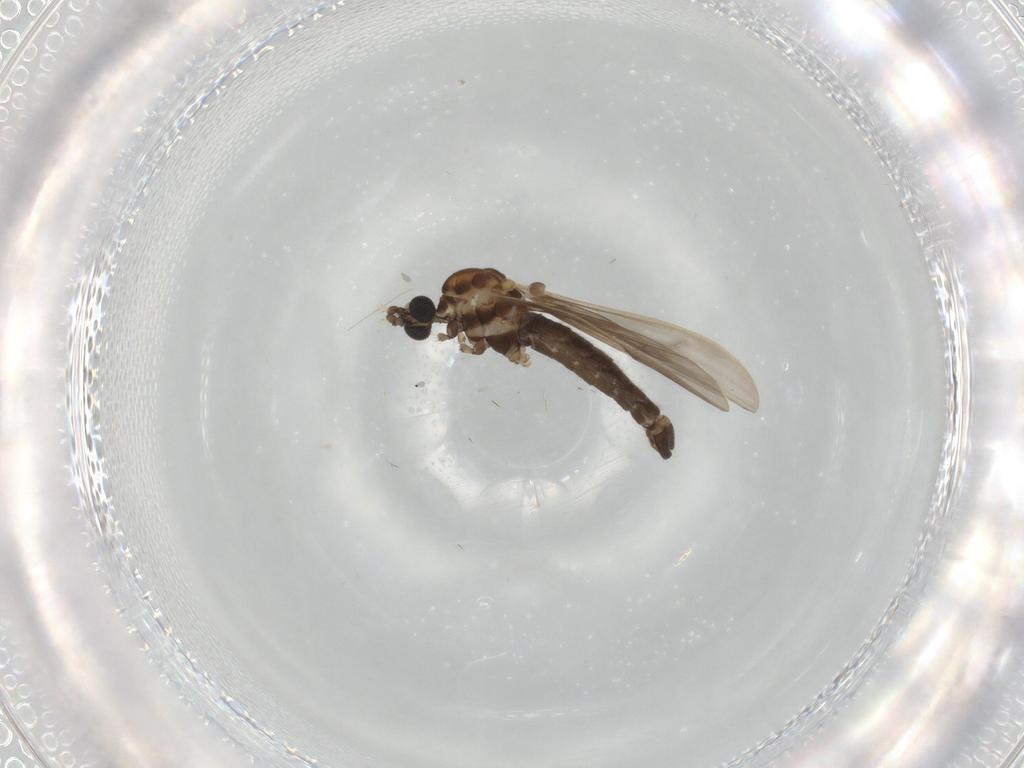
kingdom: Animalia
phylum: Arthropoda
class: Insecta
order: Diptera
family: Limoniidae
